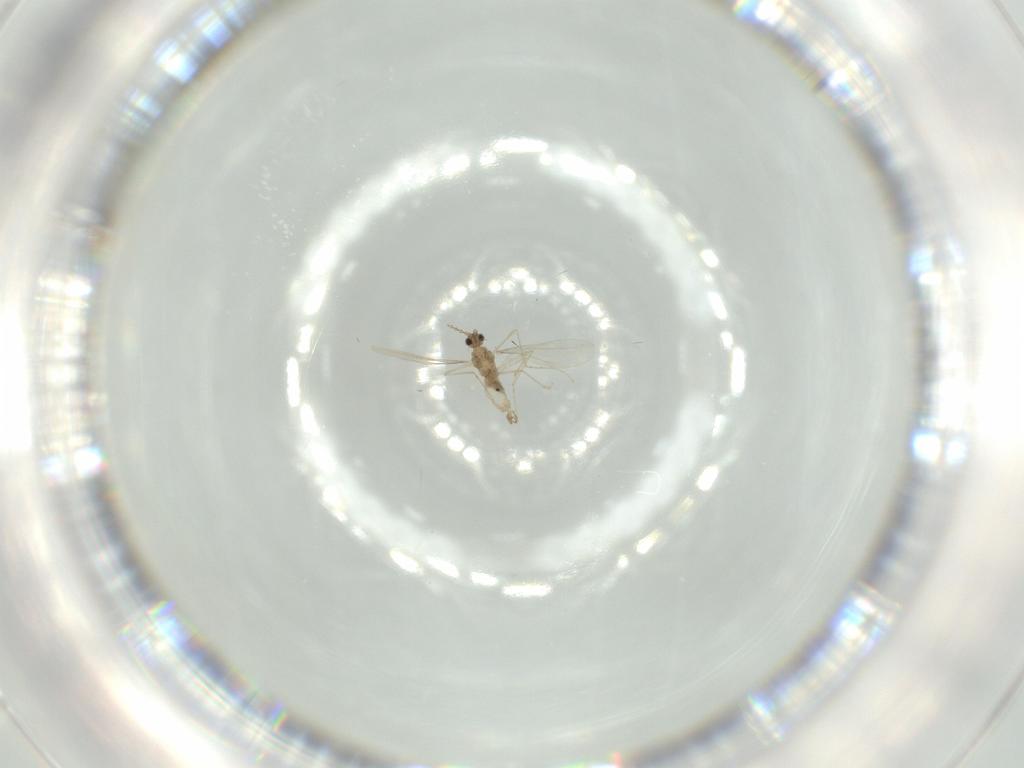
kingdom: Animalia
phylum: Arthropoda
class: Insecta
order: Diptera
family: Cecidomyiidae
